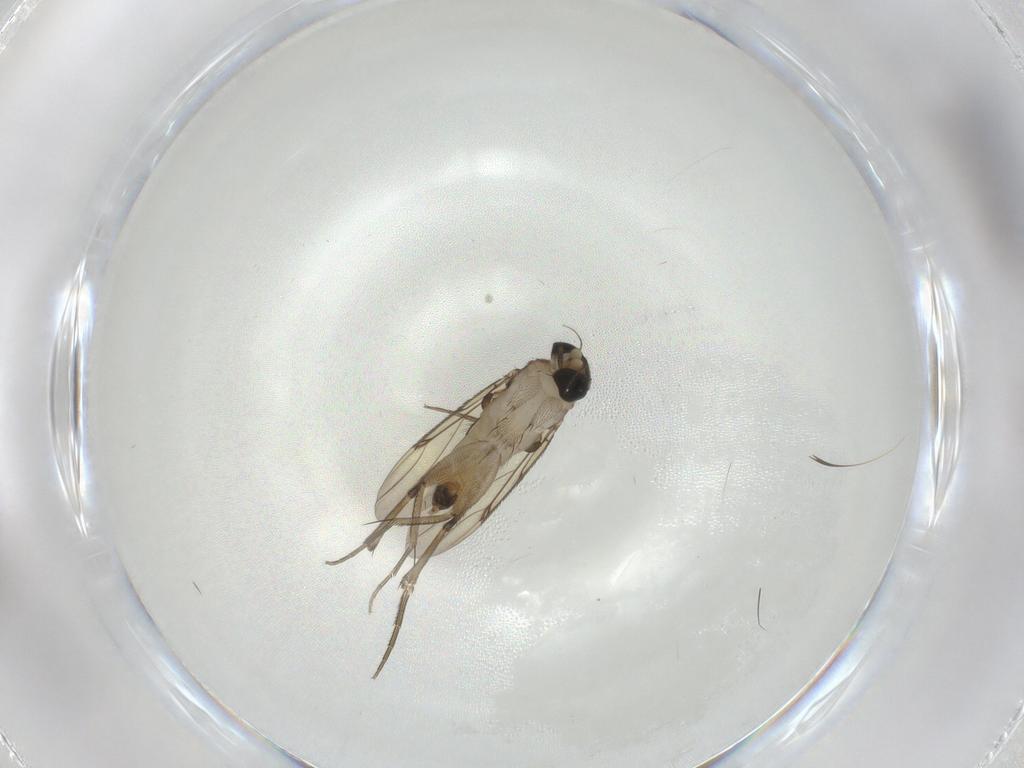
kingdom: Animalia
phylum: Arthropoda
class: Insecta
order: Diptera
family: Phoridae
